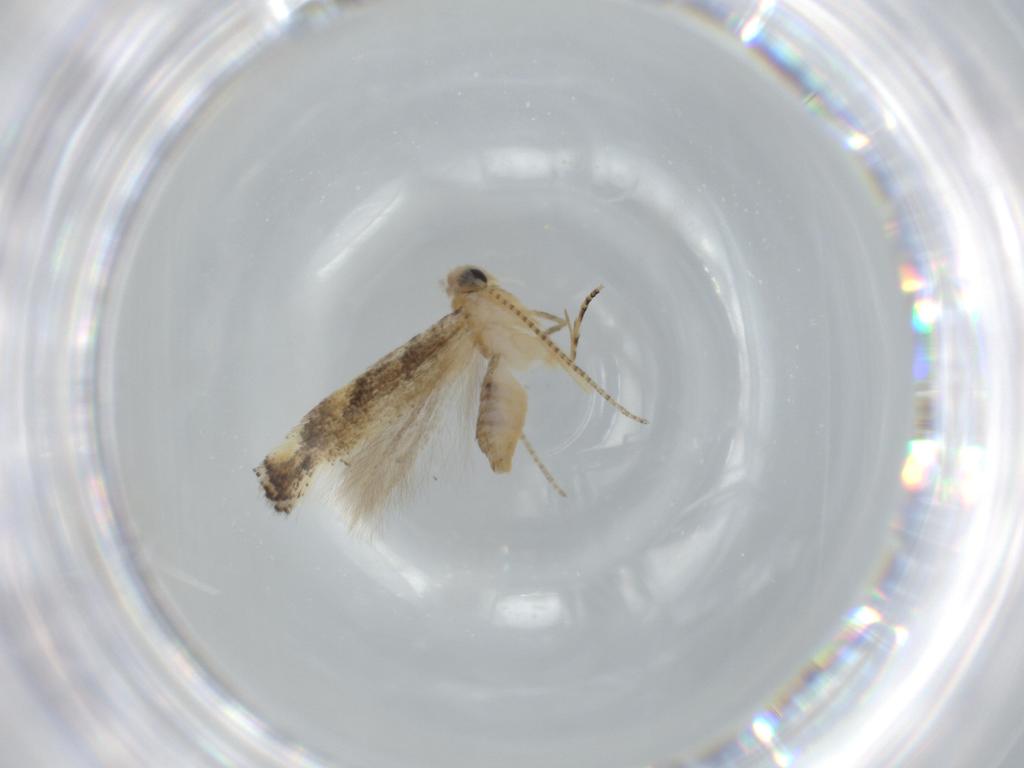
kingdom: Animalia
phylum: Arthropoda
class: Insecta
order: Lepidoptera
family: Bucculatricidae
